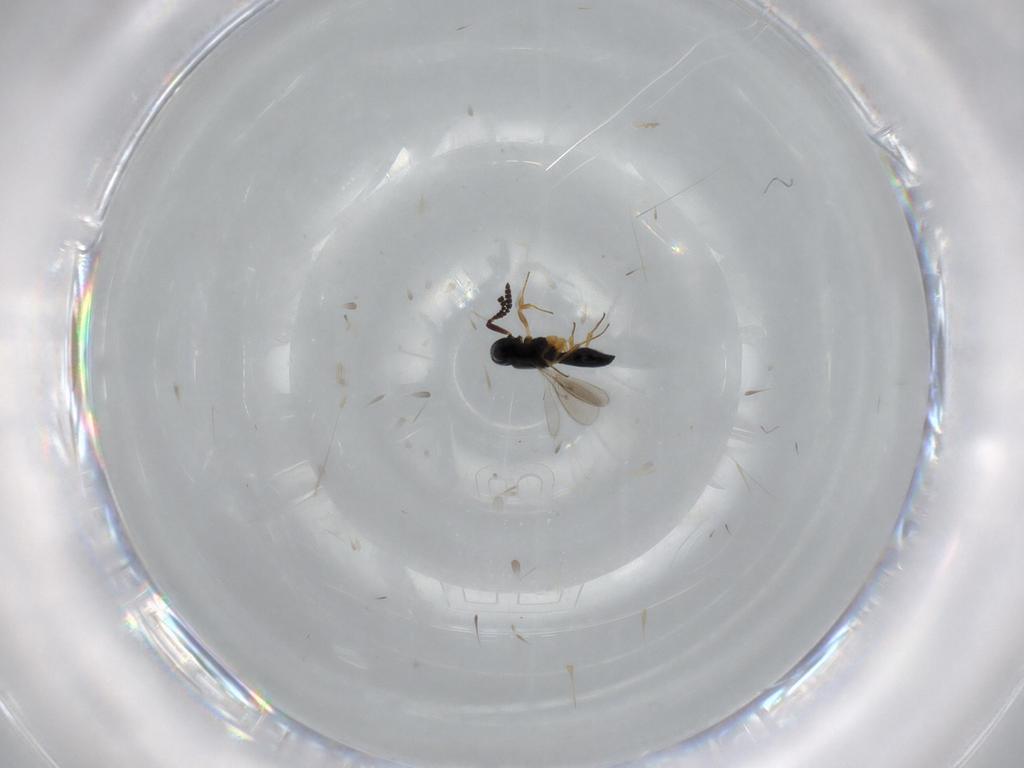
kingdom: Animalia
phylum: Arthropoda
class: Insecta
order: Hymenoptera
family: Scelionidae
